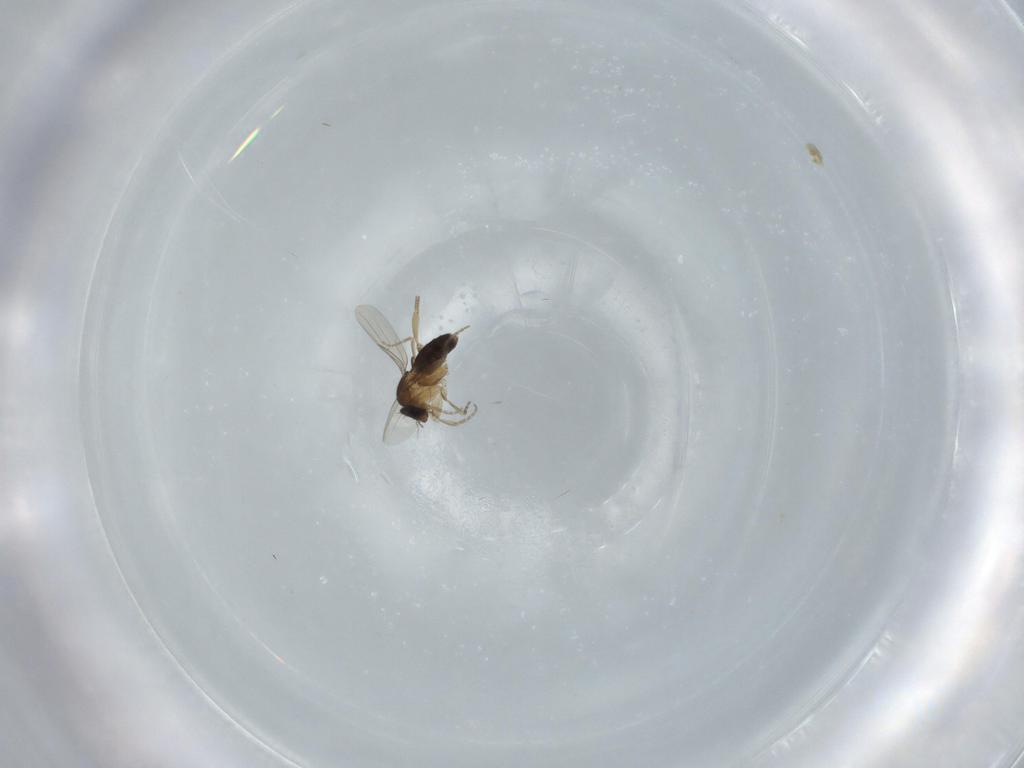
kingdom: Animalia
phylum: Arthropoda
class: Insecta
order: Diptera
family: Phoridae
